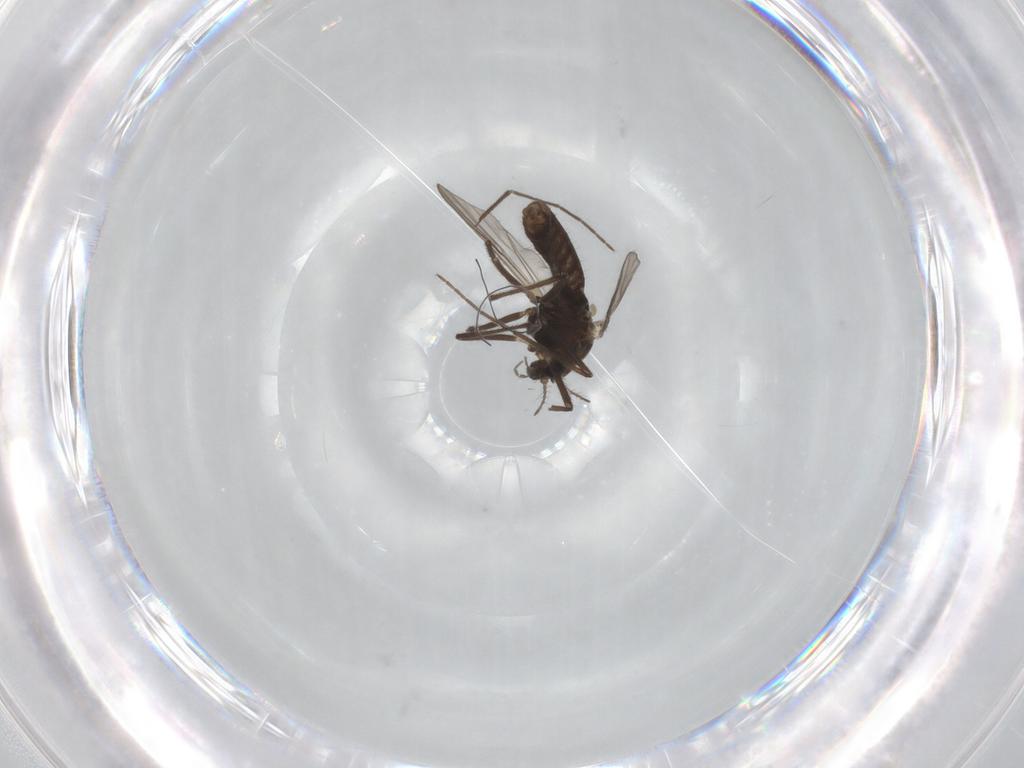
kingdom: Animalia
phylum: Arthropoda
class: Insecta
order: Diptera
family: Chironomidae
